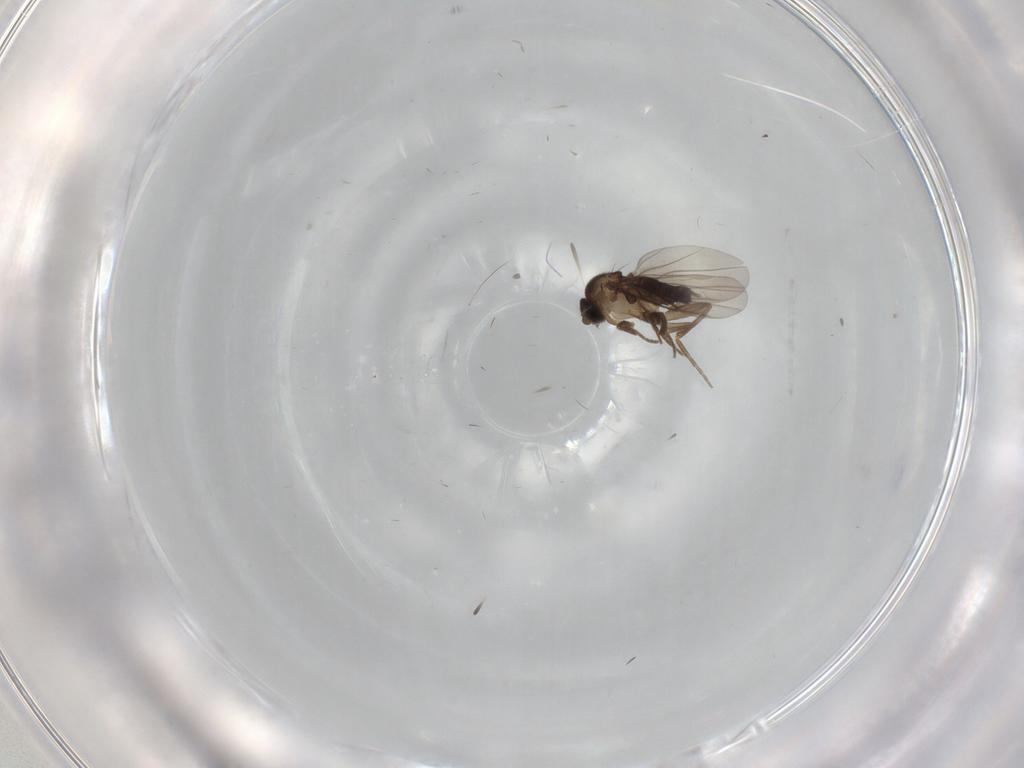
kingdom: Animalia
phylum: Arthropoda
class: Insecta
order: Diptera
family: Phoridae
